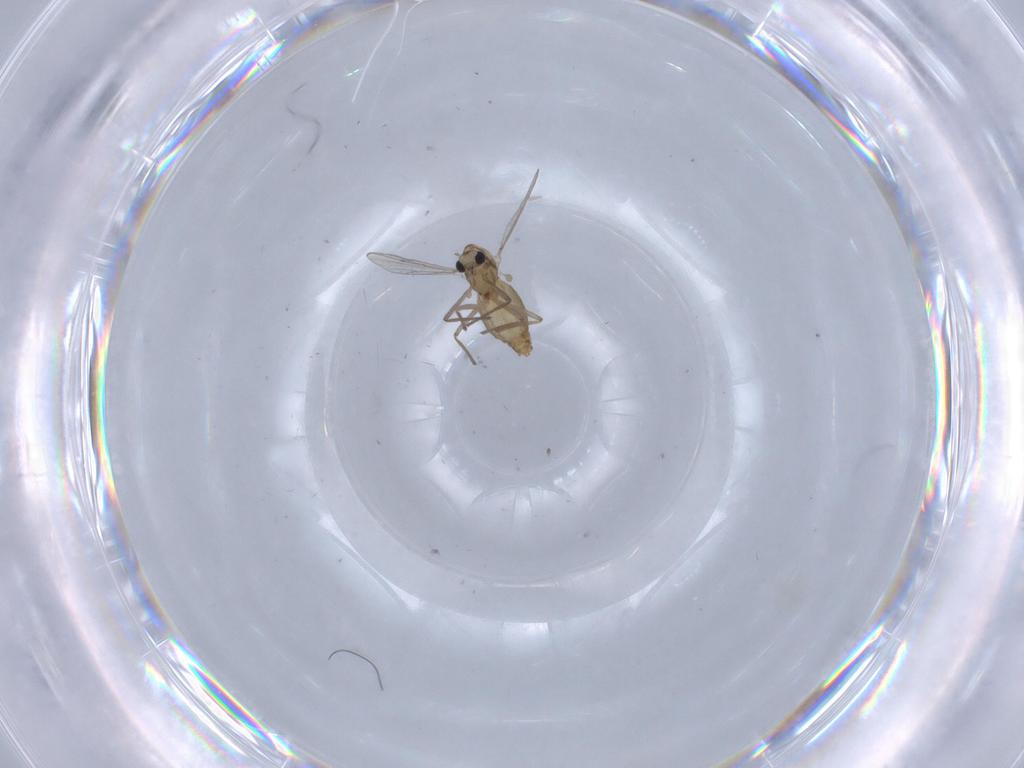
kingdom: Animalia
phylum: Arthropoda
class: Insecta
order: Diptera
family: Chironomidae
